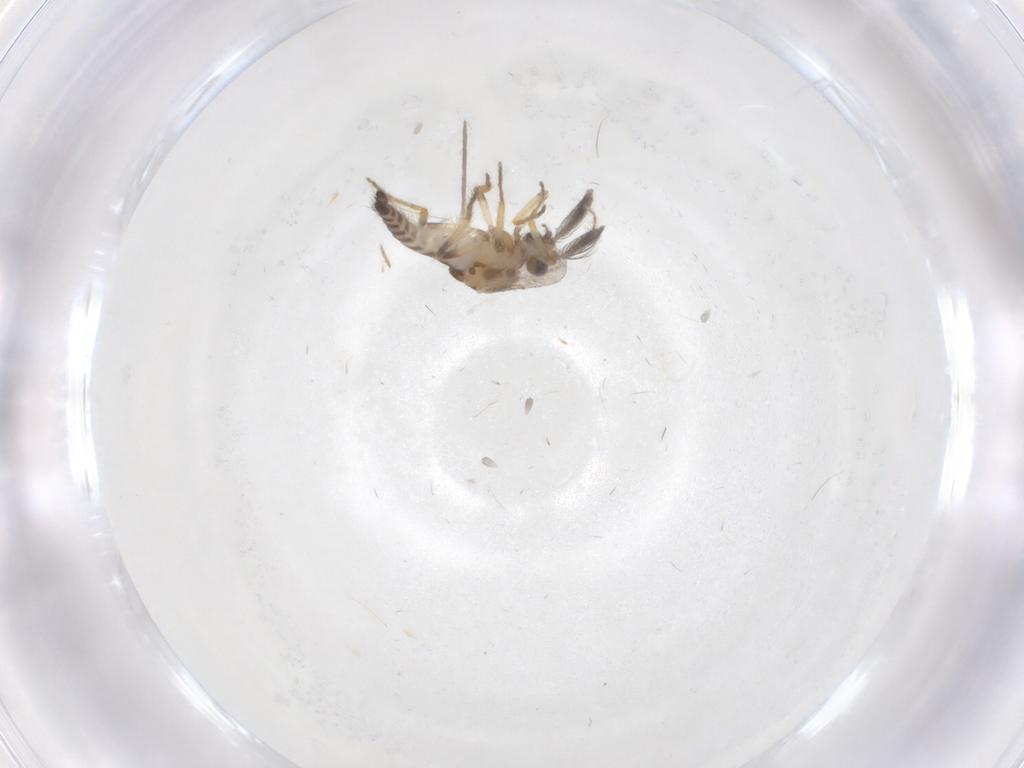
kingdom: Animalia
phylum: Arthropoda
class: Insecta
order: Diptera
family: Ceratopogonidae
